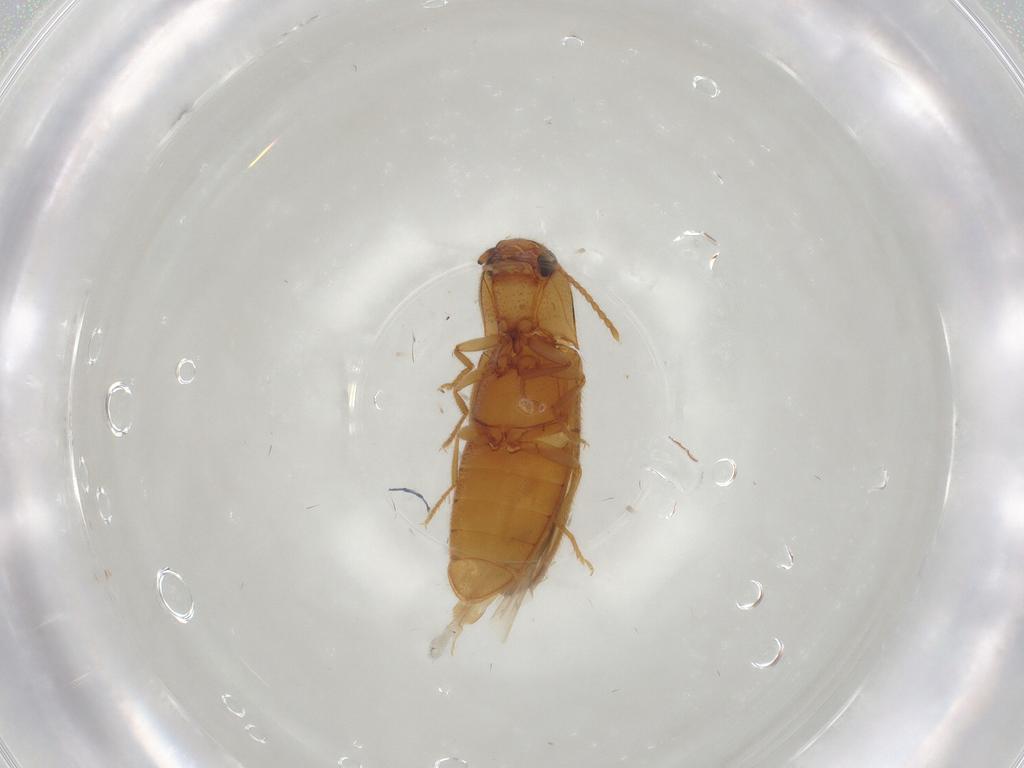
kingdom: Animalia
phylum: Arthropoda
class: Insecta
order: Coleoptera
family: Elateridae
